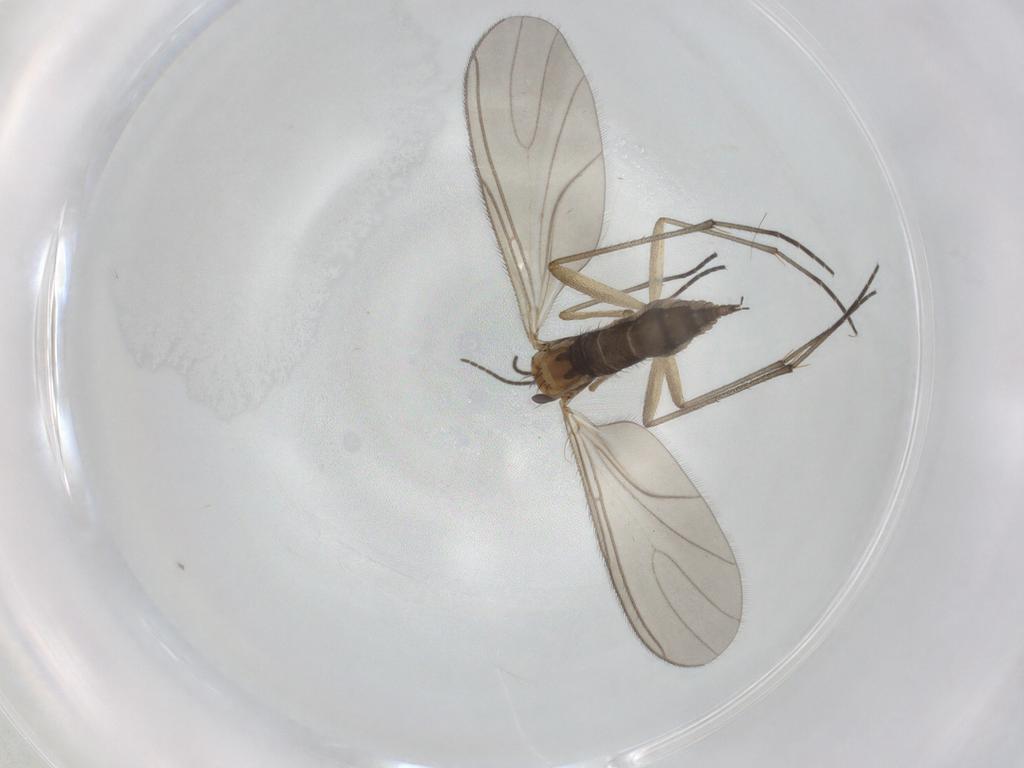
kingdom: Animalia
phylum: Arthropoda
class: Insecta
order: Diptera
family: Sciaridae
